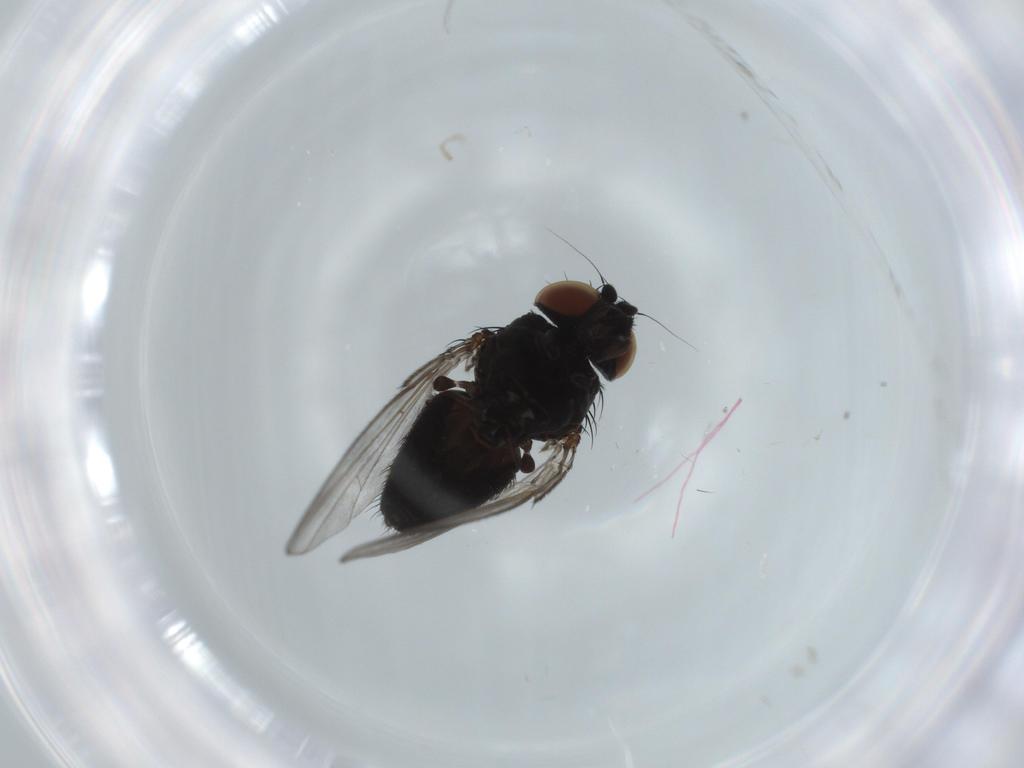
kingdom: Animalia
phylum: Arthropoda
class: Insecta
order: Diptera
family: Milichiidae
